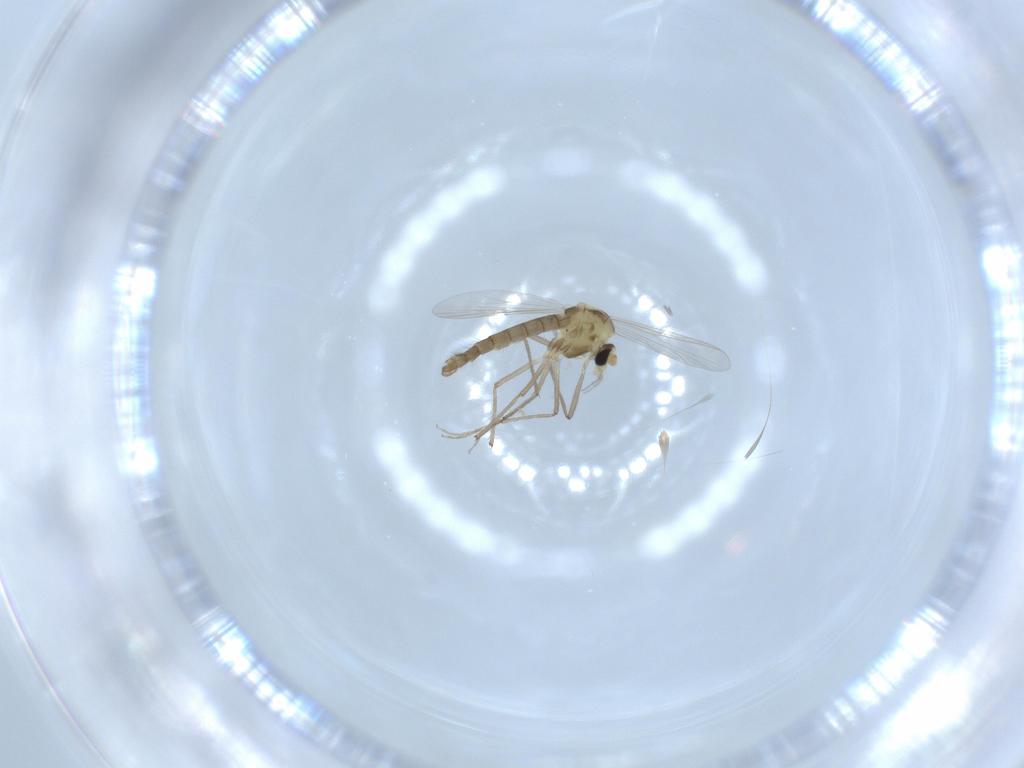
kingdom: Animalia
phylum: Arthropoda
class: Insecta
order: Diptera
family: Chironomidae
